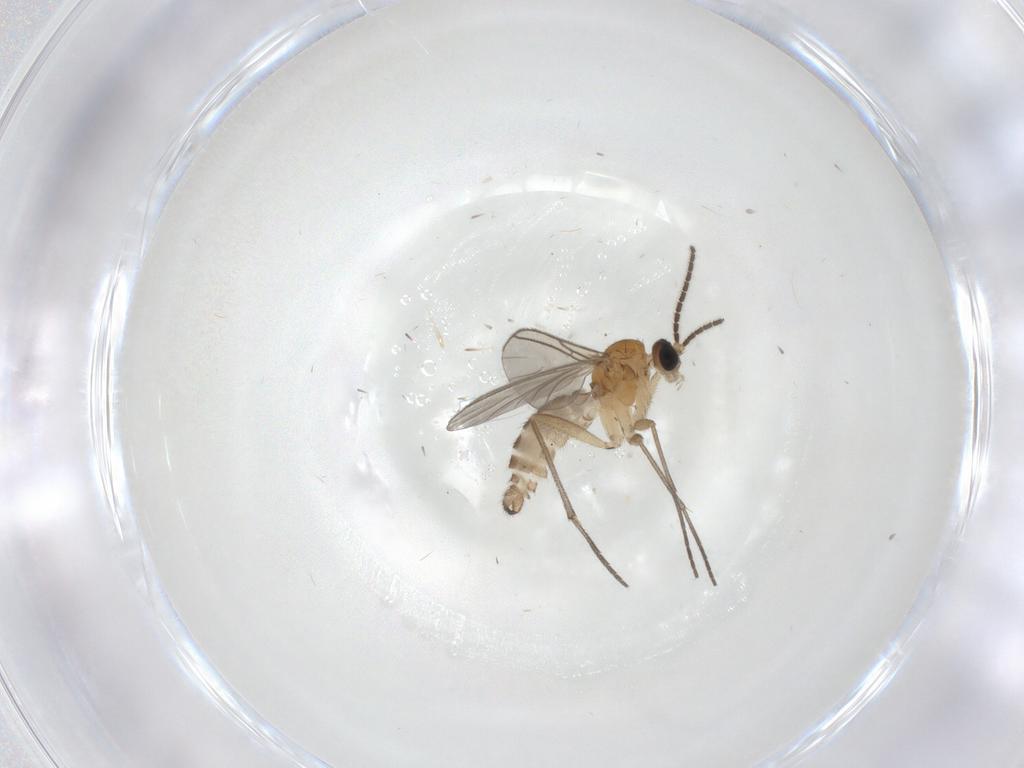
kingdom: Animalia
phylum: Arthropoda
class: Insecta
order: Diptera
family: Sciaridae
